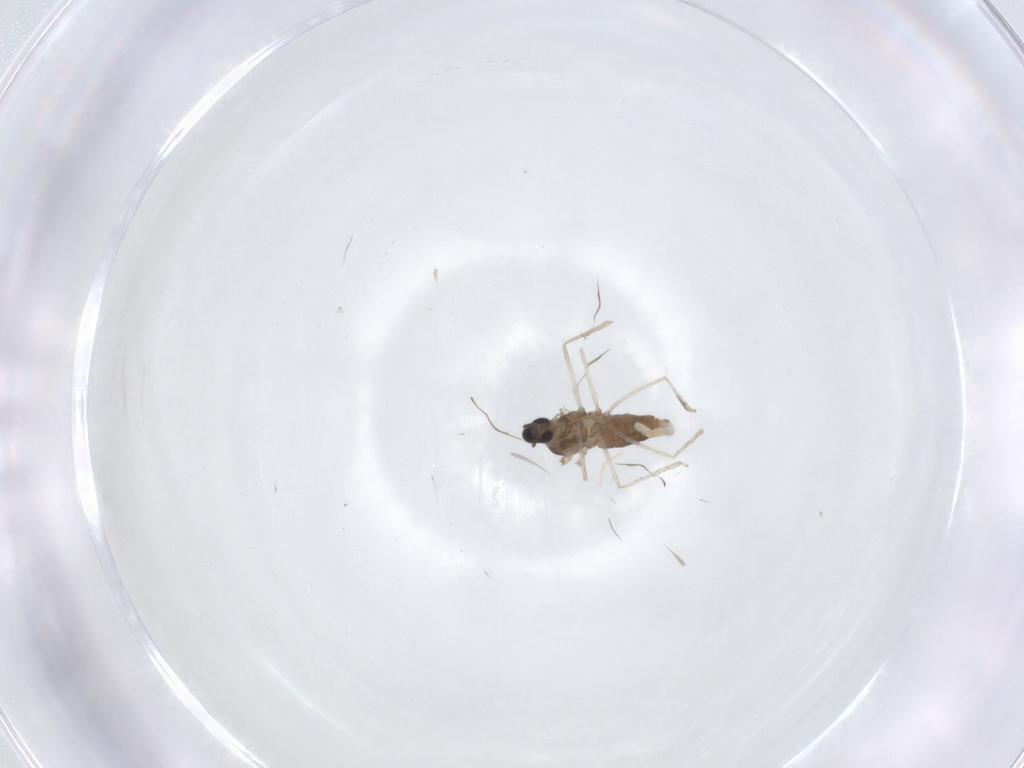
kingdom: Animalia
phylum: Arthropoda
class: Insecta
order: Diptera
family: Cecidomyiidae
